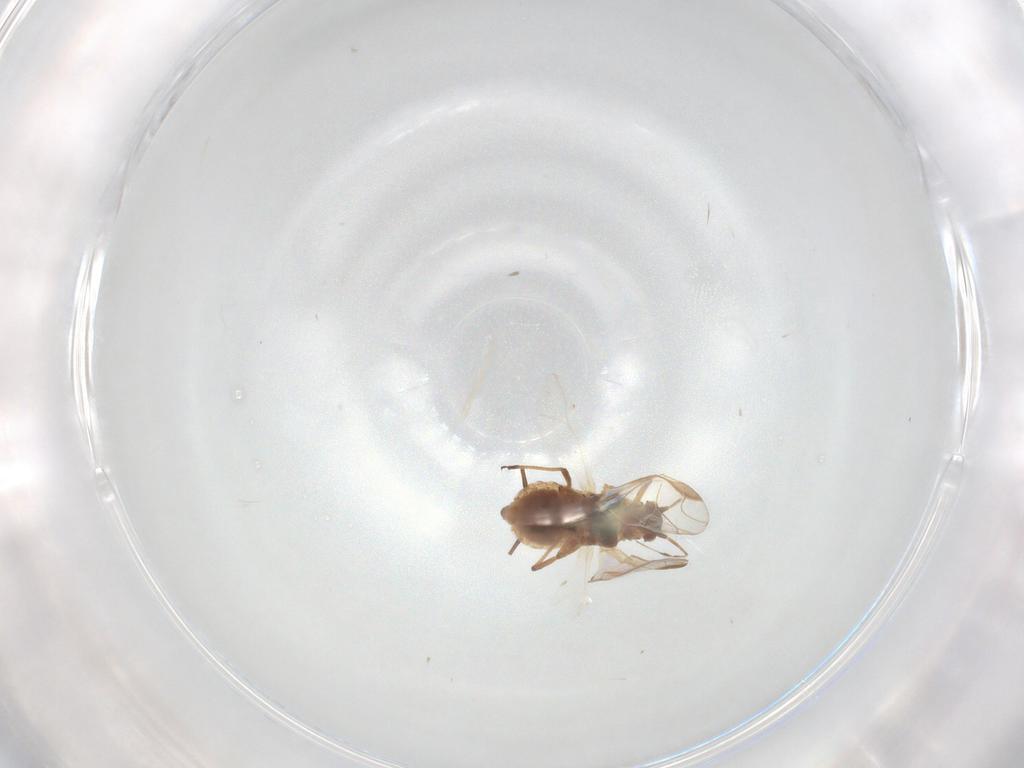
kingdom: Animalia
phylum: Arthropoda
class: Insecta
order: Hemiptera
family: Aphididae
